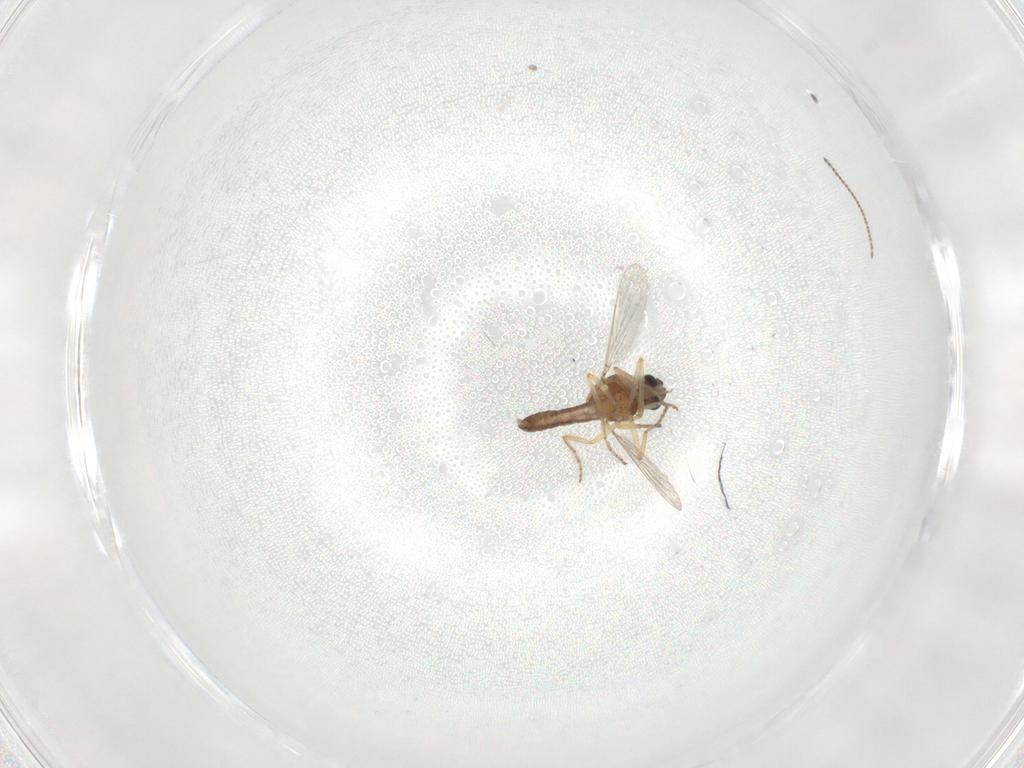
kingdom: Animalia
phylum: Arthropoda
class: Insecta
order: Diptera
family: Ceratopogonidae
